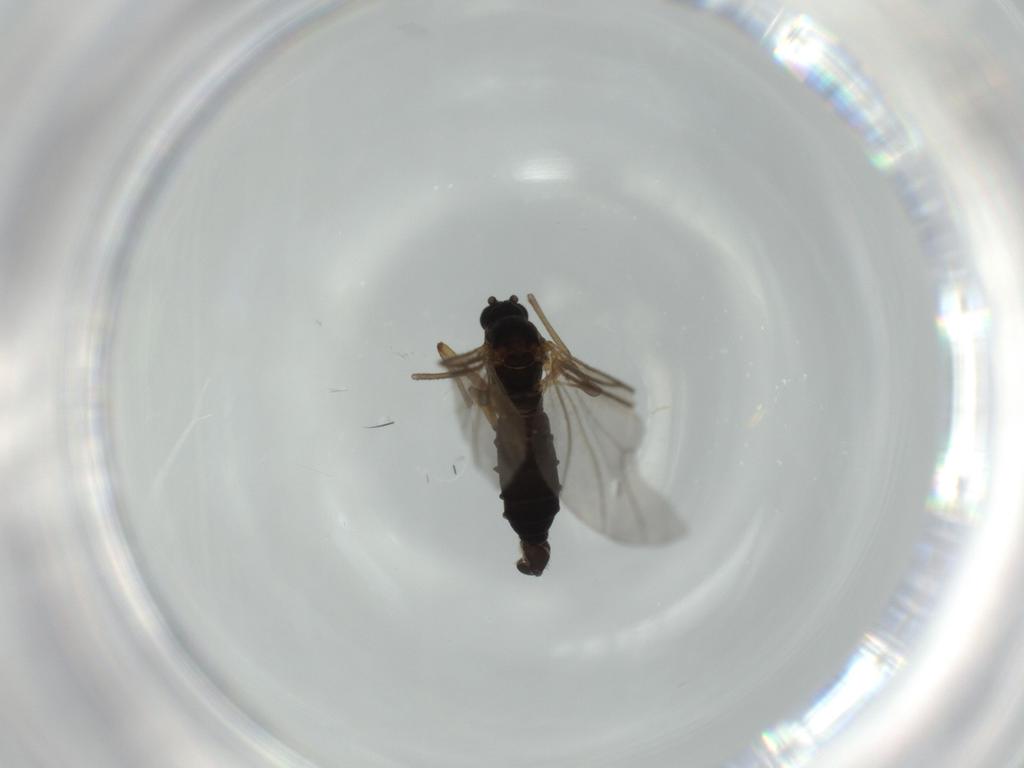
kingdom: Animalia
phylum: Arthropoda
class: Insecta
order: Diptera
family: Sciaridae
